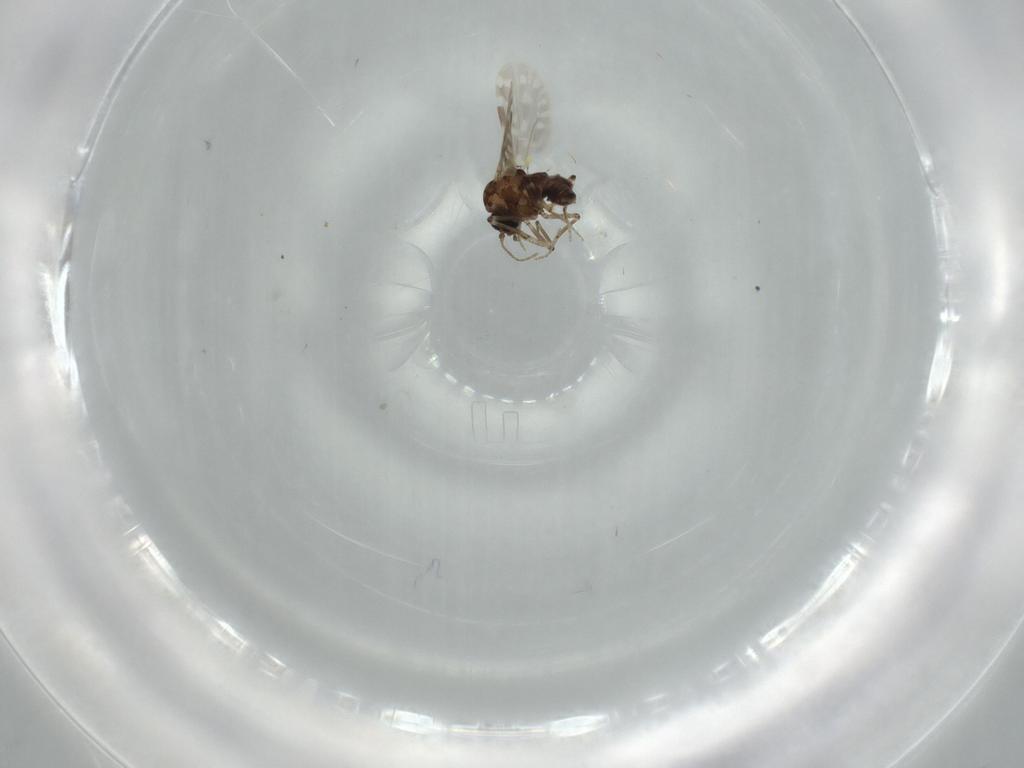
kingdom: Animalia
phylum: Arthropoda
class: Insecta
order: Diptera
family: Ceratopogonidae
